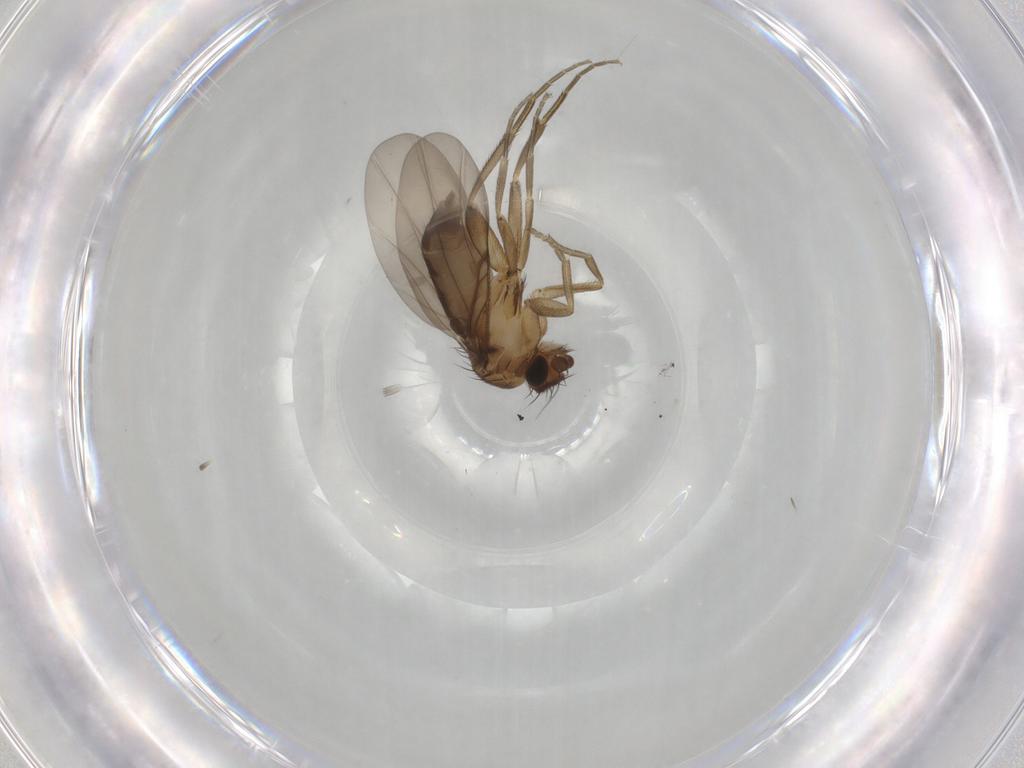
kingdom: Animalia
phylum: Arthropoda
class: Insecta
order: Diptera
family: Phoridae
